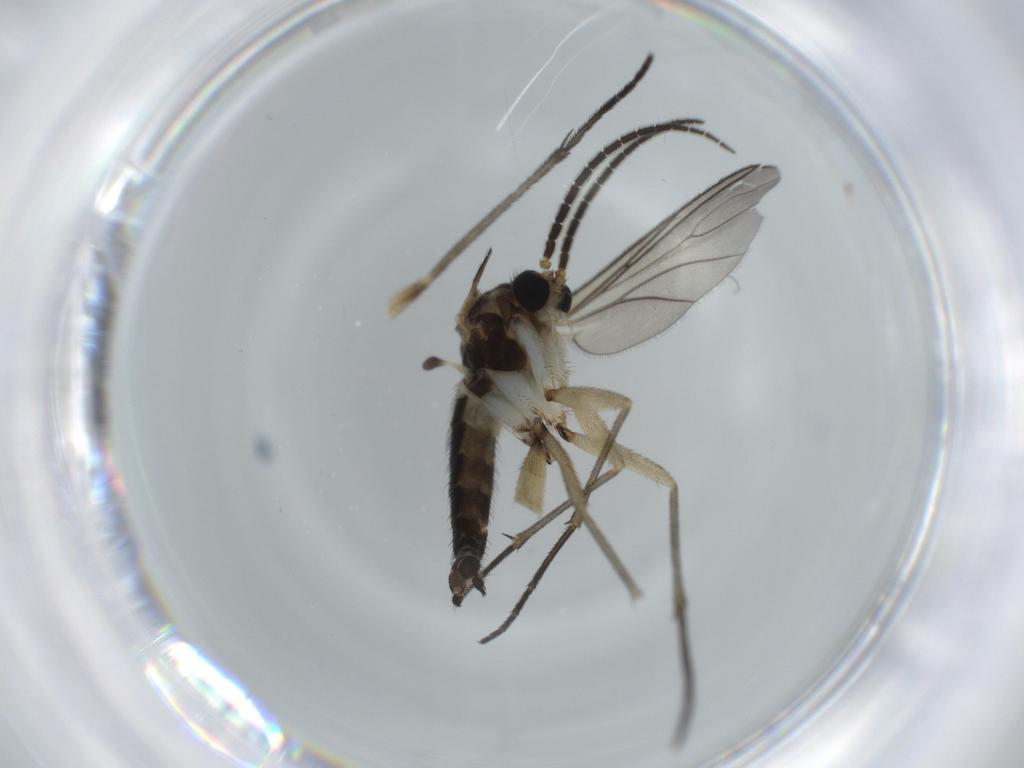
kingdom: Animalia
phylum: Arthropoda
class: Insecta
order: Diptera
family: Sciaridae
